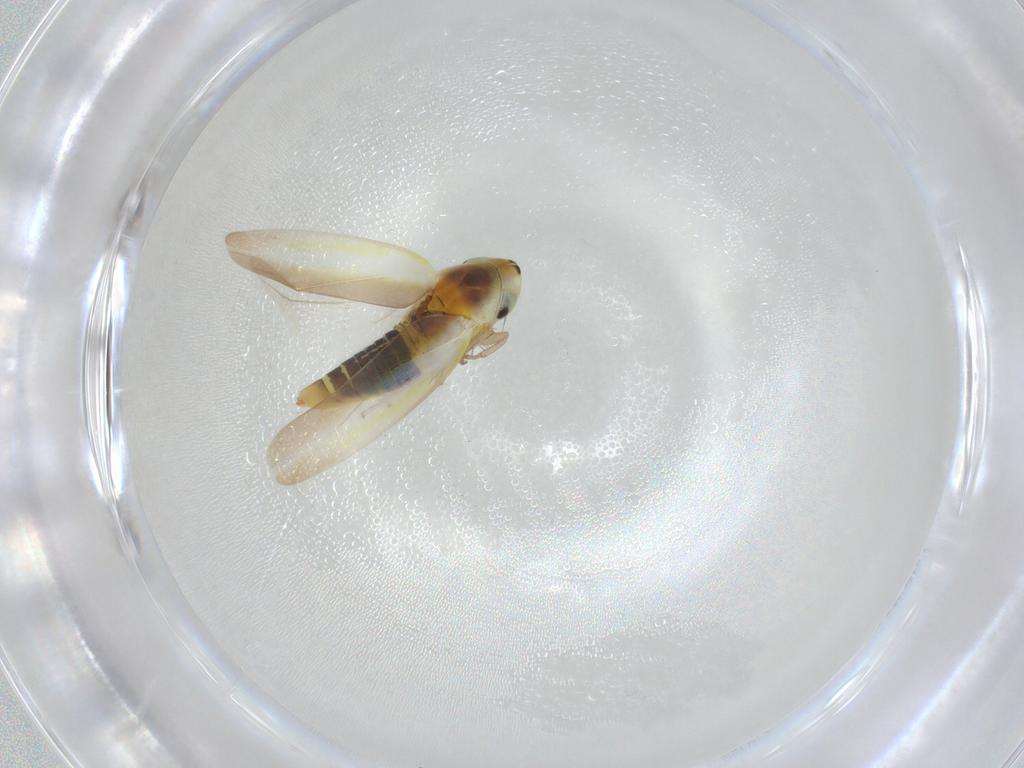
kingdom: Animalia
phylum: Arthropoda
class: Insecta
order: Hemiptera
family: Cicadellidae
